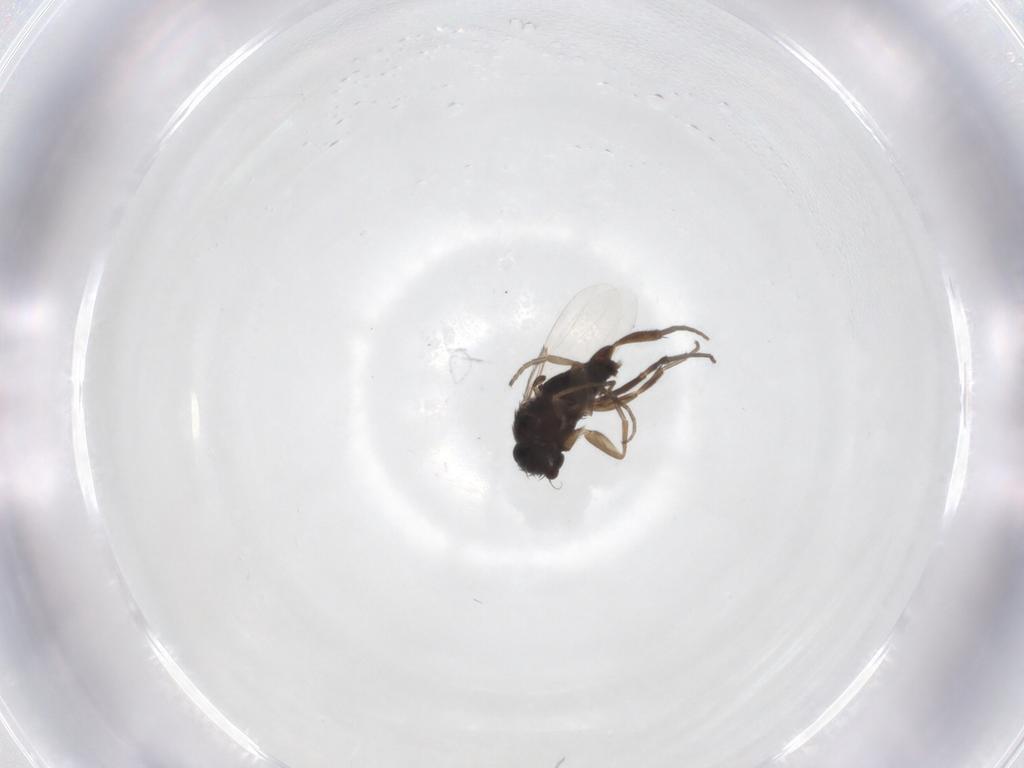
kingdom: Animalia
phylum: Arthropoda
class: Insecta
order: Diptera
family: Phoridae
